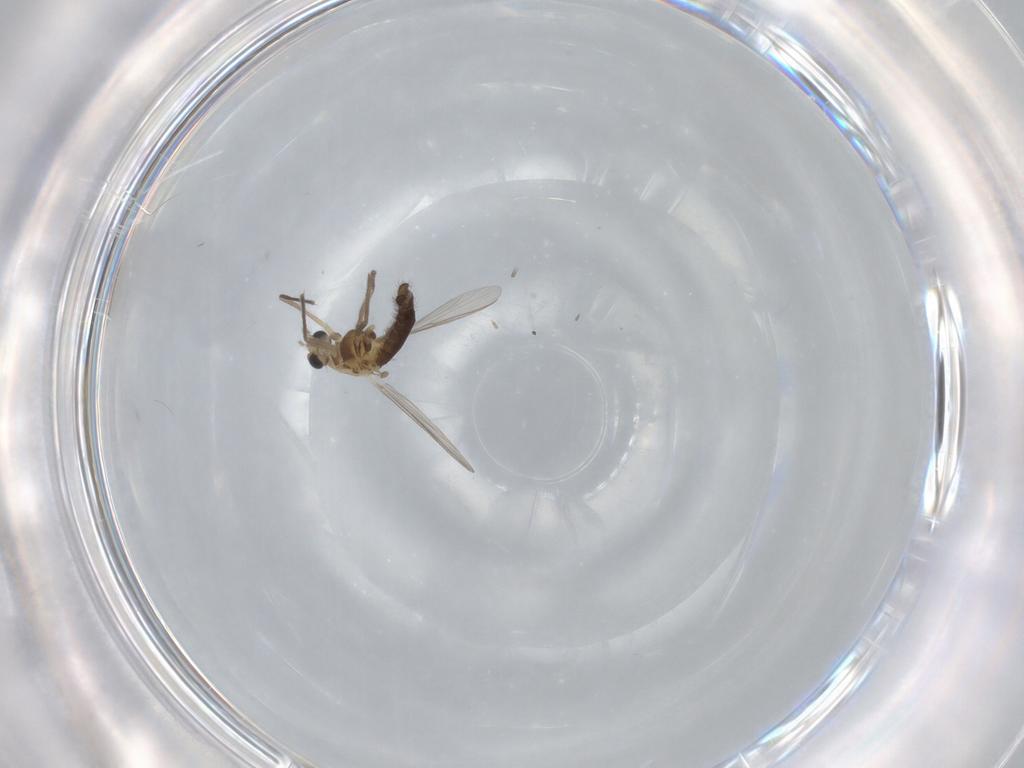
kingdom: Animalia
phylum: Arthropoda
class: Insecta
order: Diptera
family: Chironomidae
